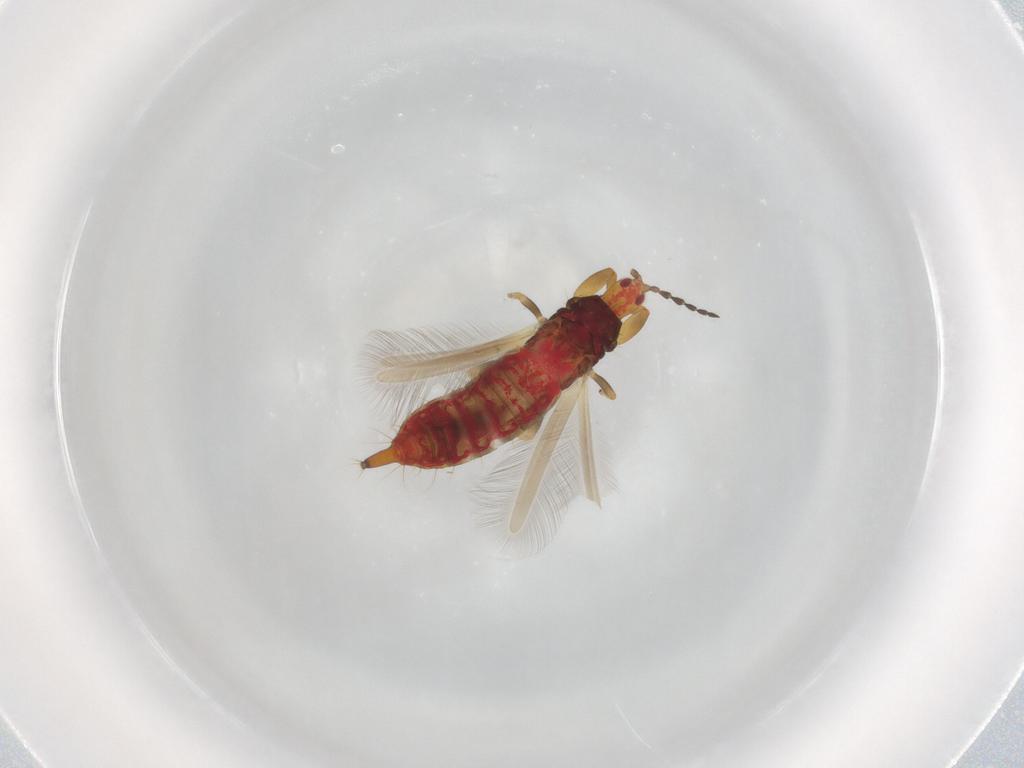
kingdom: Animalia
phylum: Arthropoda
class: Insecta
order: Thysanoptera
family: Phlaeothripidae
